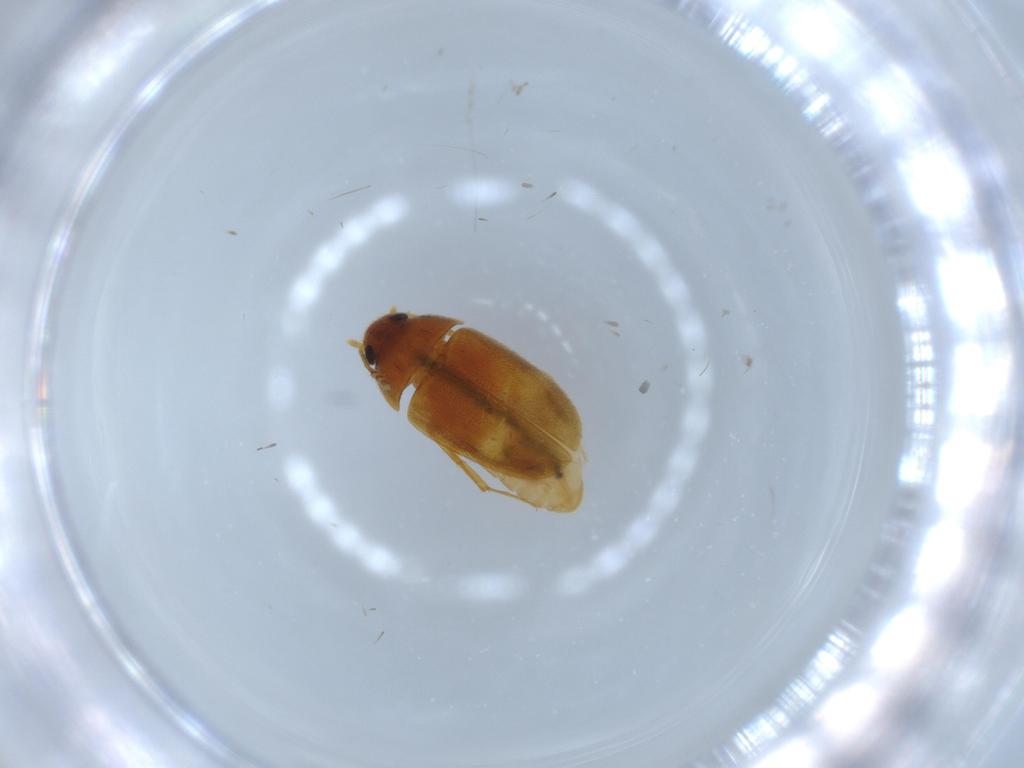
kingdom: Animalia
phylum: Arthropoda
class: Insecta
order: Coleoptera
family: Mycetophagidae
